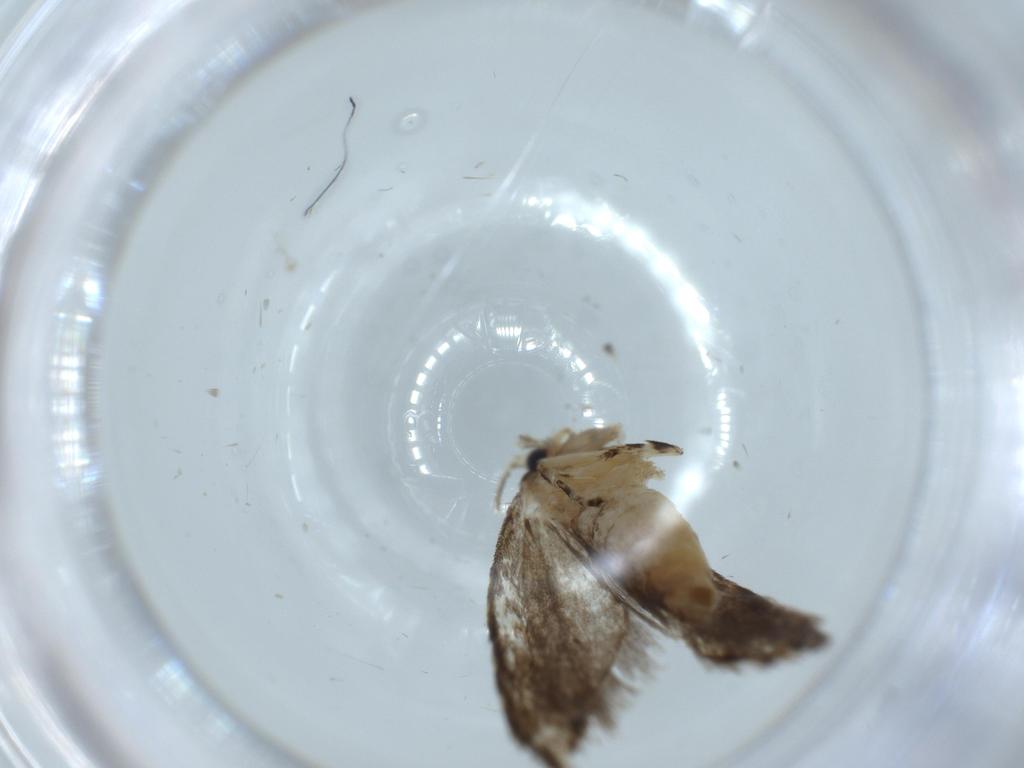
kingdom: Animalia
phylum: Arthropoda
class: Insecta
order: Lepidoptera
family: Tineidae
